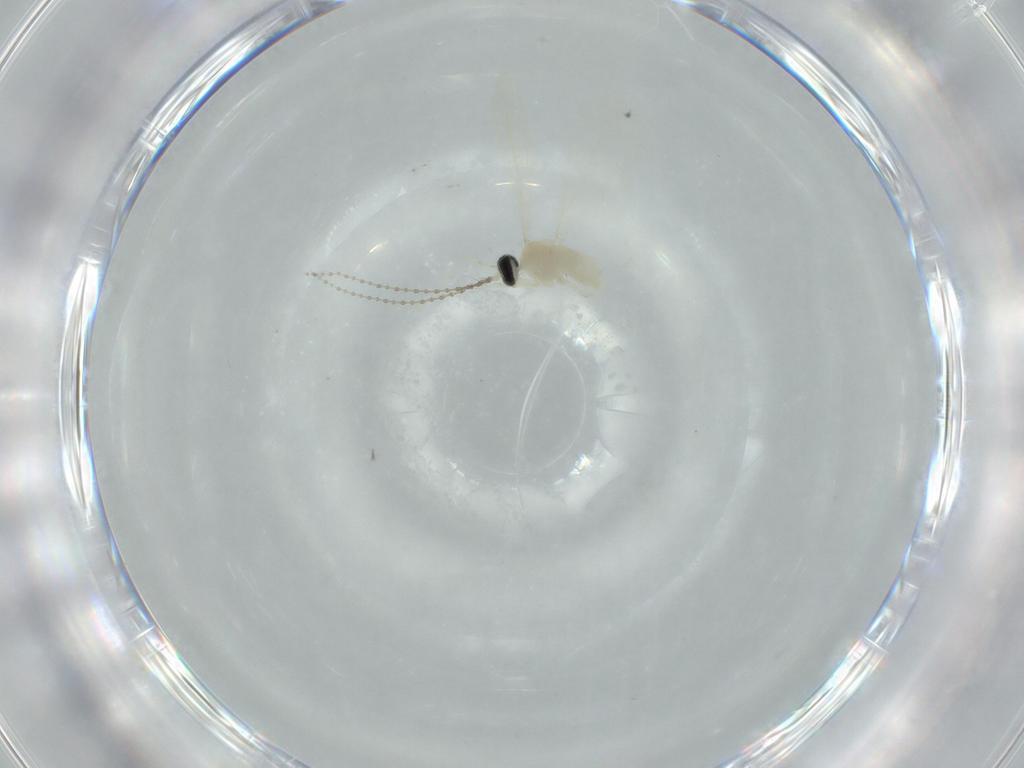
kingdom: Animalia
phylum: Arthropoda
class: Insecta
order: Diptera
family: Cecidomyiidae
